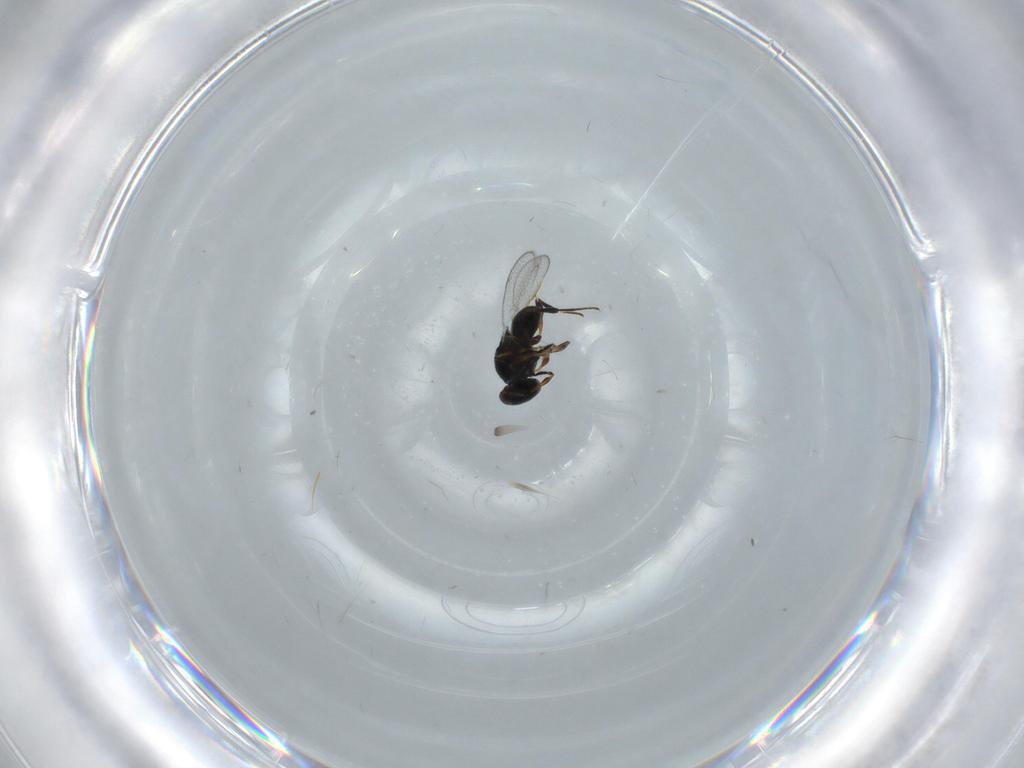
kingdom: Animalia
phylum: Arthropoda
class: Insecta
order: Hymenoptera
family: Platygastridae
